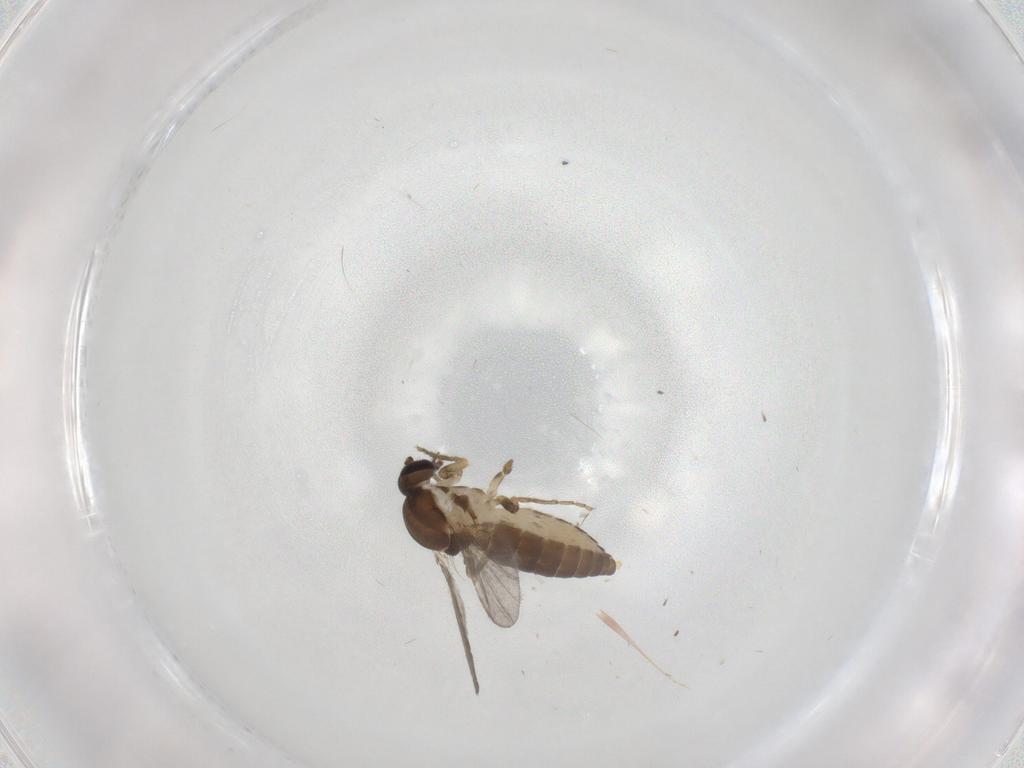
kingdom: Animalia
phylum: Arthropoda
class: Insecta
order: Diptera
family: Ceratopogonidae
